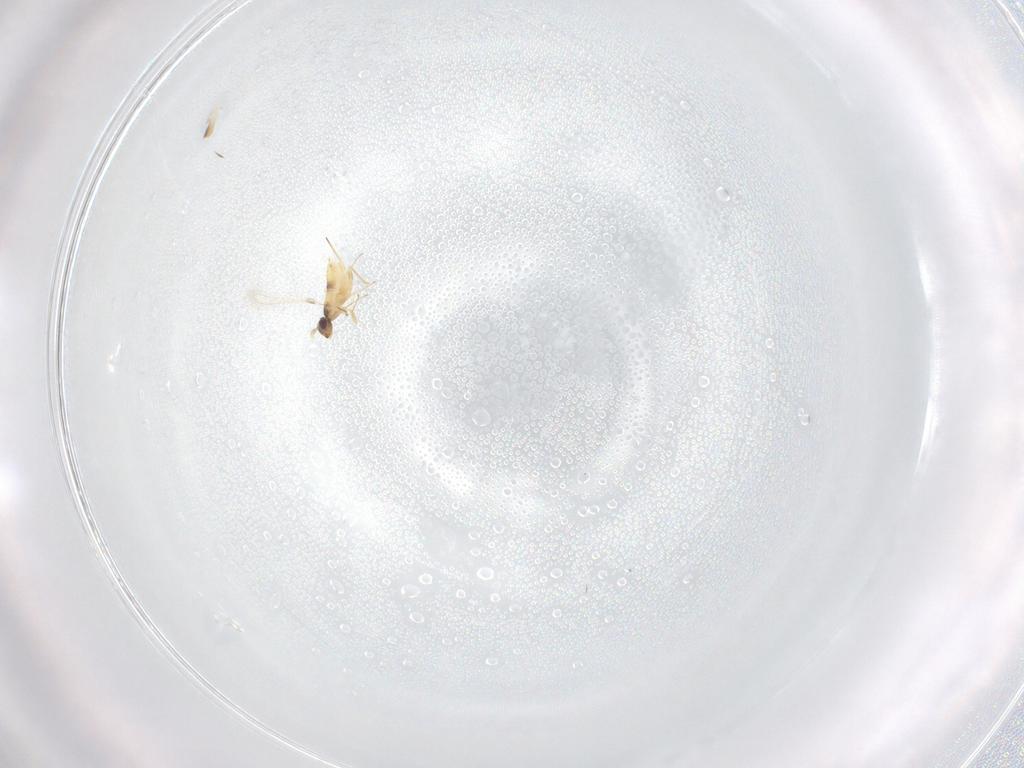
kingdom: Animalia
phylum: Arthropoda
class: Insecta
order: Hymenoptera
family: Mymaridae
